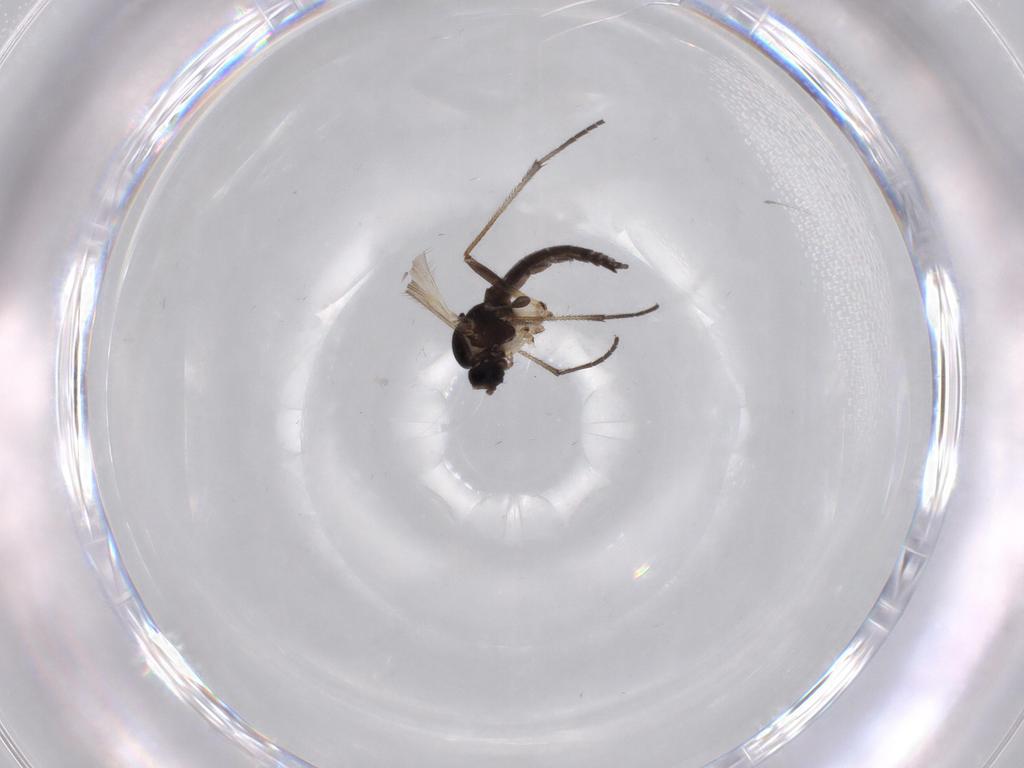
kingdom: Animalia
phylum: Arthropoda
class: Insecta
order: Diptera
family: Sciaridae
